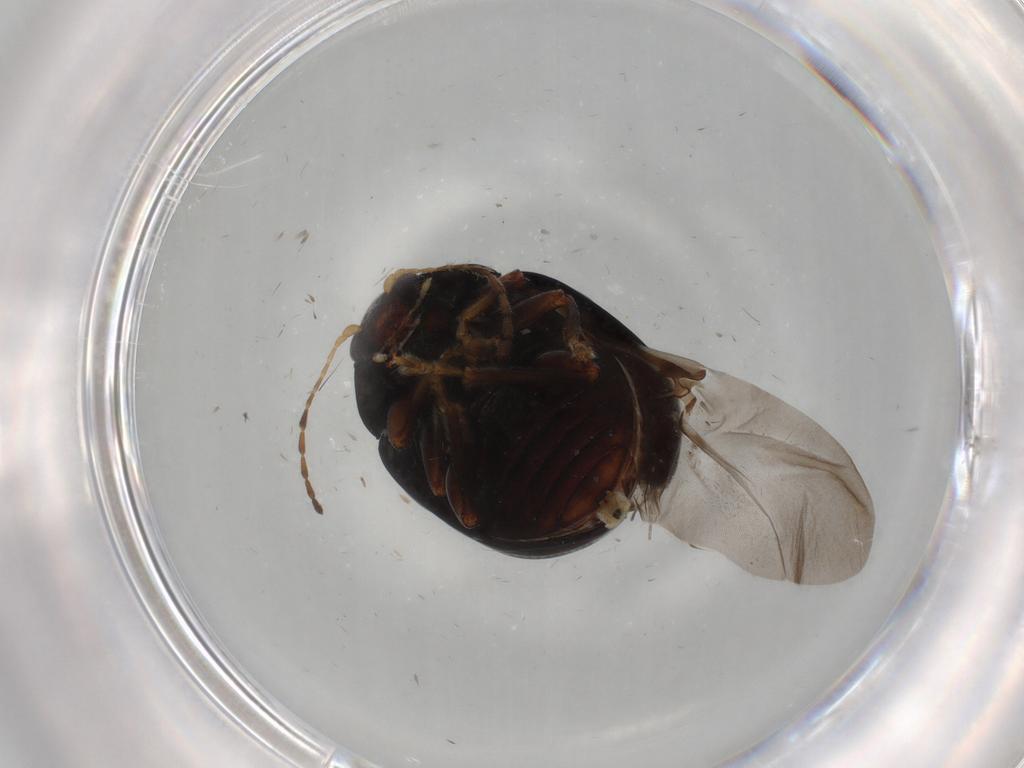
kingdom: Animalia
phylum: Arthropoda
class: Insecta
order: Coleoptera
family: Chrysomelidae
